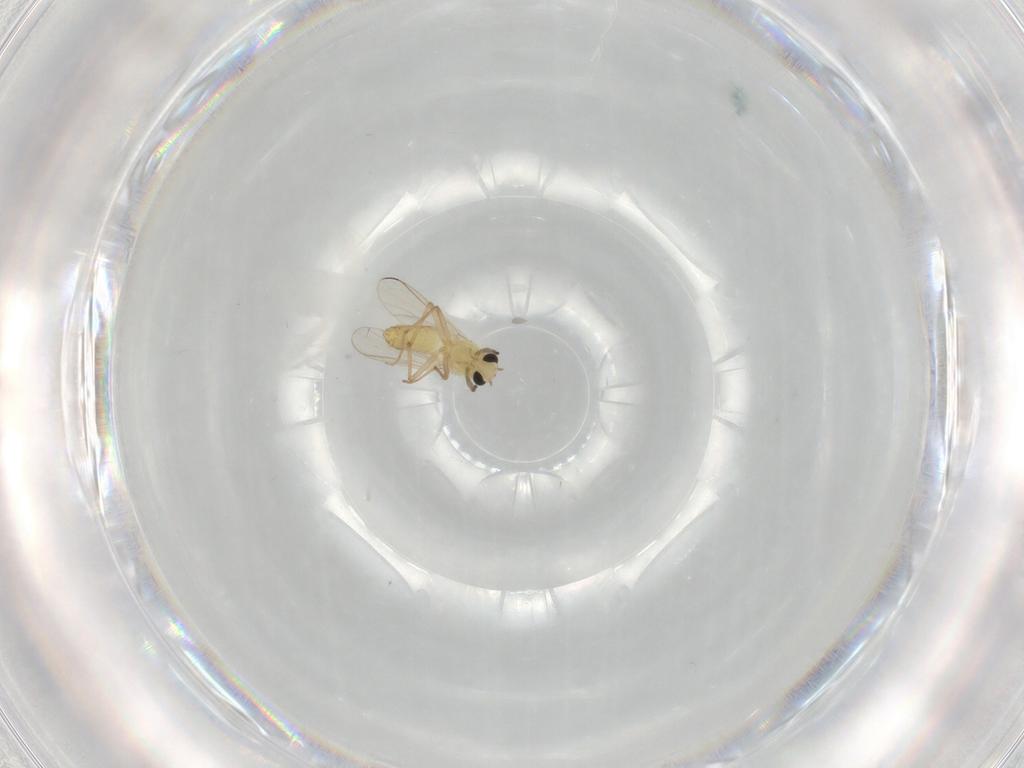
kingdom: Animalia
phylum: Arthropoda
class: Insecta
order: Diptera
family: Chironomidae
